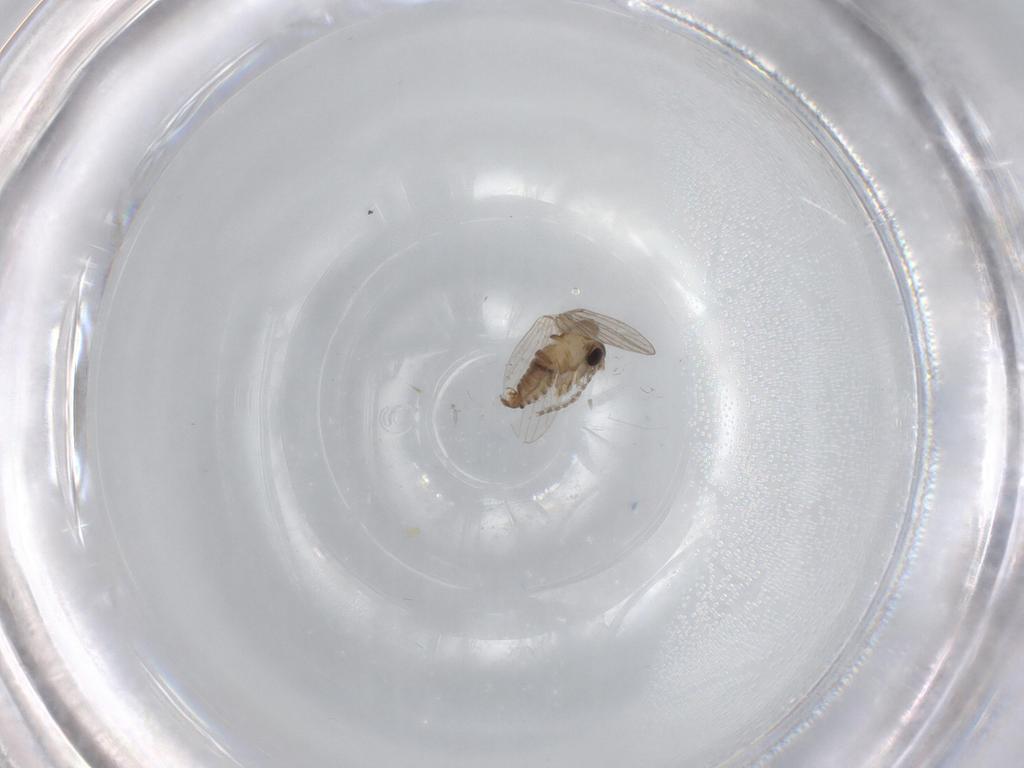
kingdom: Animalia
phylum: Arthropoda
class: Insecta
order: Diptera
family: Psychodidae
